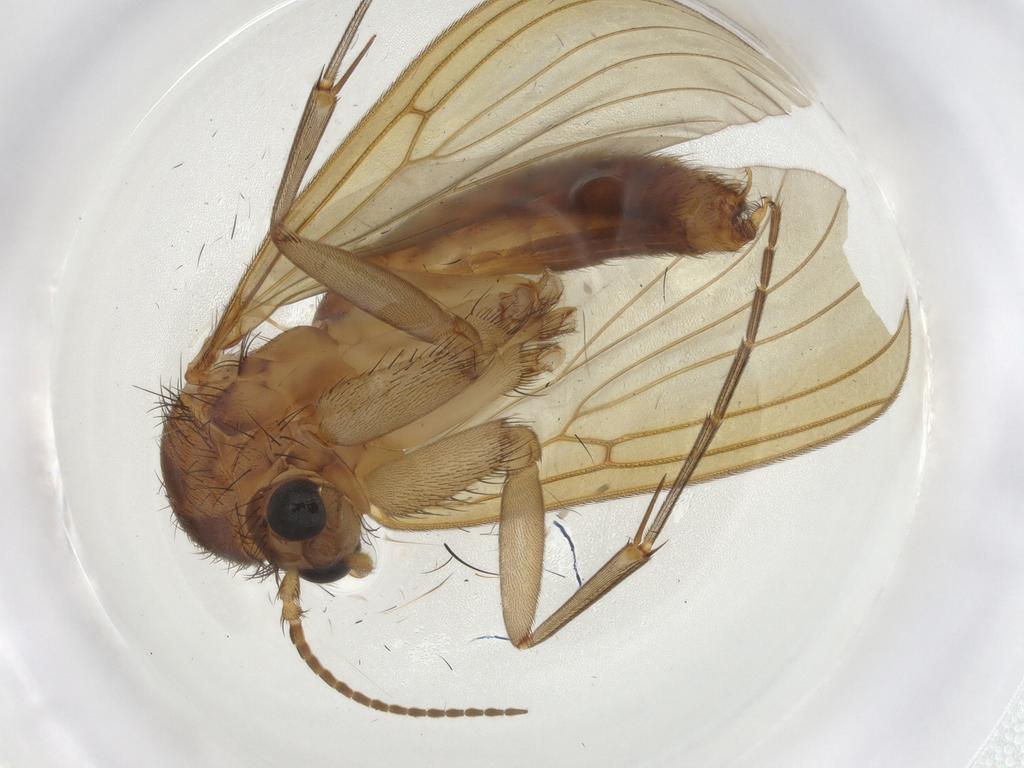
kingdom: Animalia
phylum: Arthropoda
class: Insecta
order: Diptera
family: Mycetophilidae
